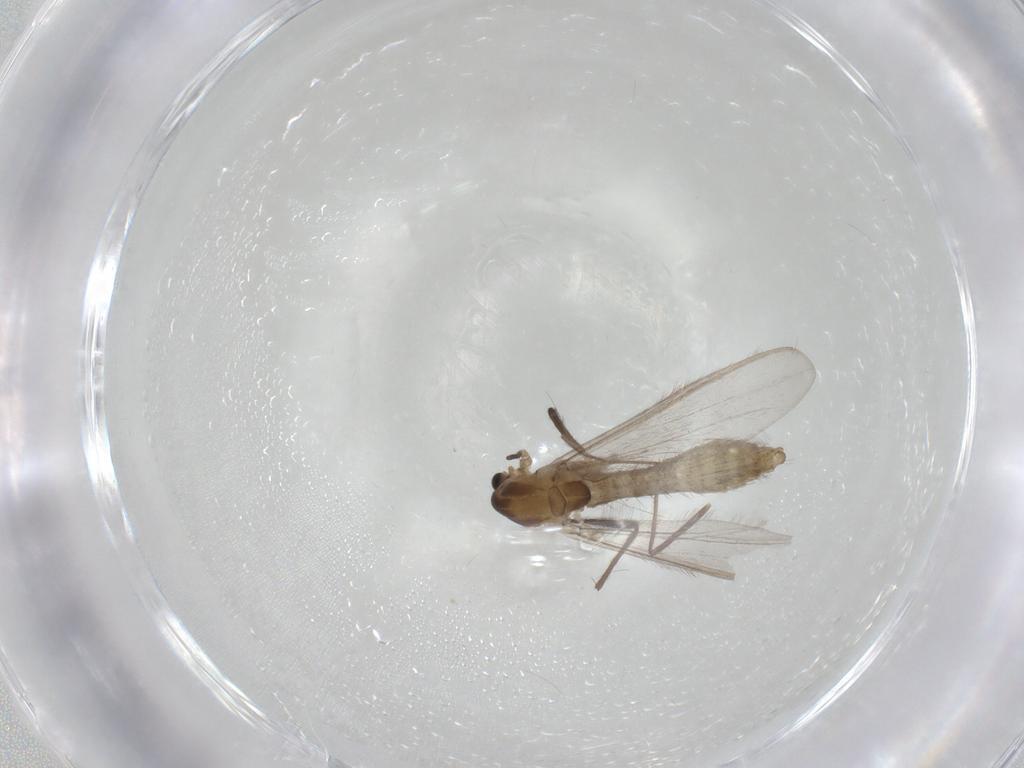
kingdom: Animalia
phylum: Arthropoda
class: Insecta
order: Diptera
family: Chironomidae
